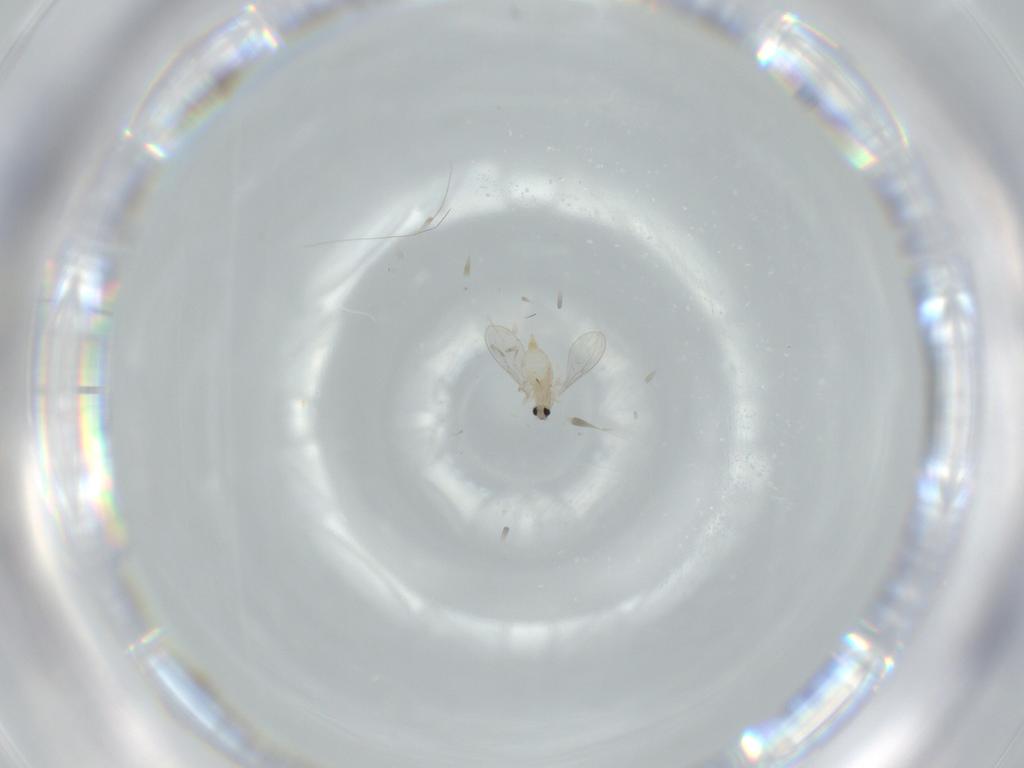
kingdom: Animalia
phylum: Arthropoda
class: Insecta
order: Diptera
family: Cecidomyiidae
